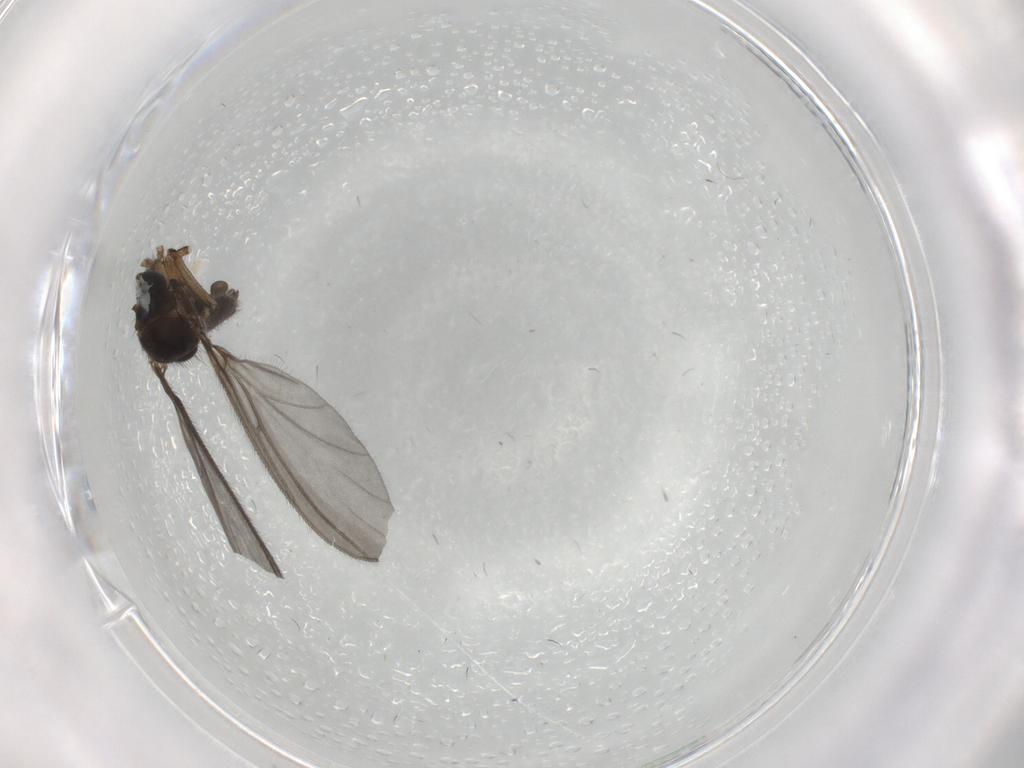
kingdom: Animalia
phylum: Arthropoda
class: Insecta
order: Diptera
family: Sciaridae
